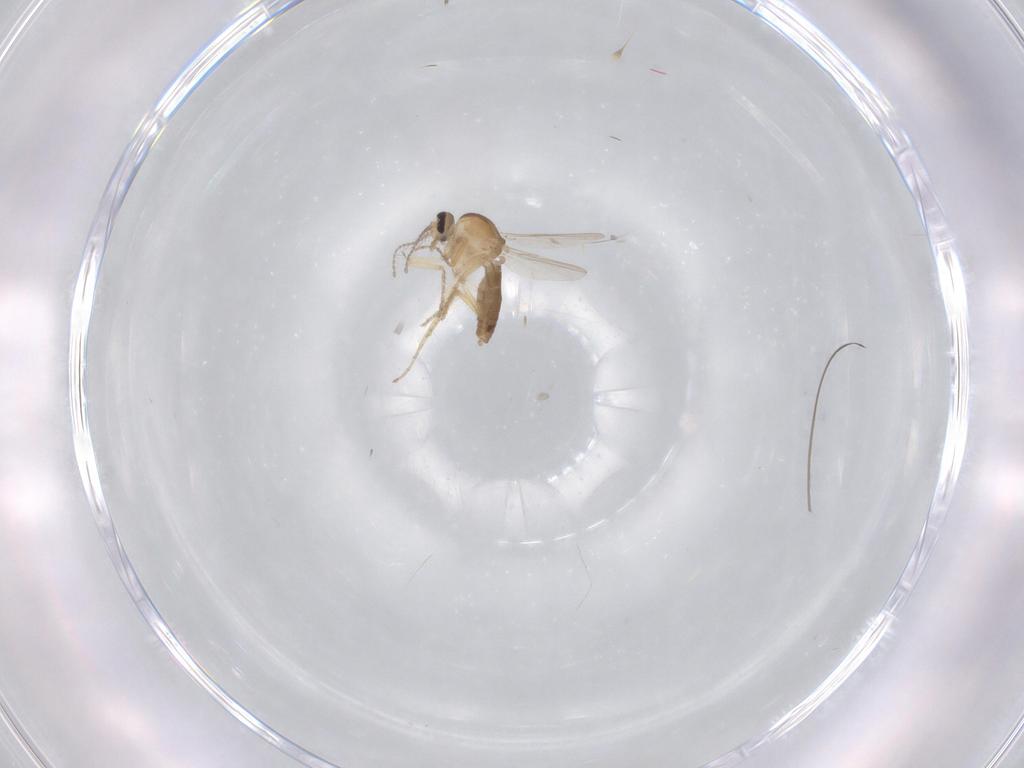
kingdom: Animalia
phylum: Arthropoda
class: Insecta
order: Diptera
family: Ceratopogonidae
